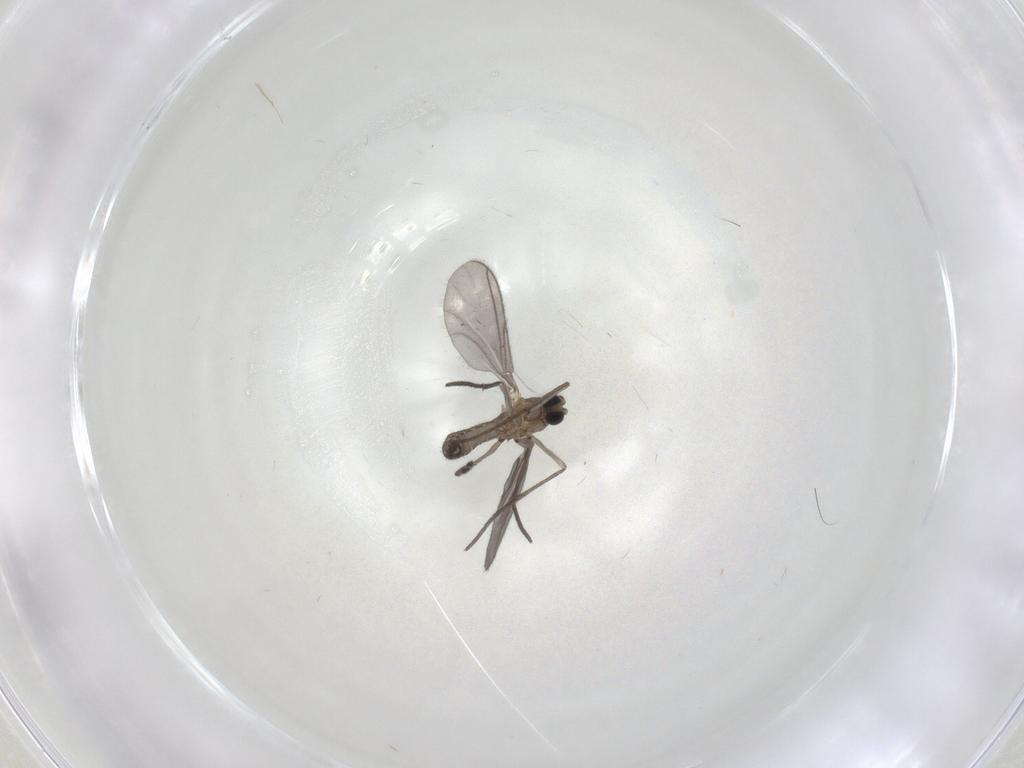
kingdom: Animalia
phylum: Arthropoda
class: Insecta
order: Diptera
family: Sciaridae
